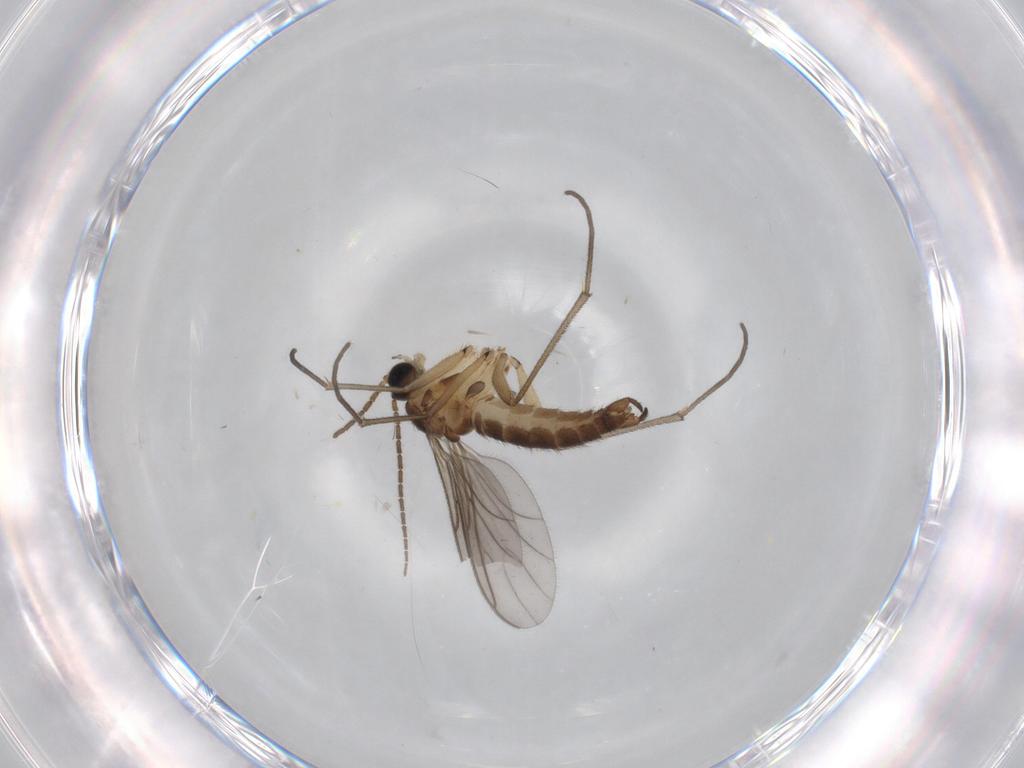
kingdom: Animalia
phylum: Arthropoda
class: Insecta
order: Diptera
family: Sciaridae
